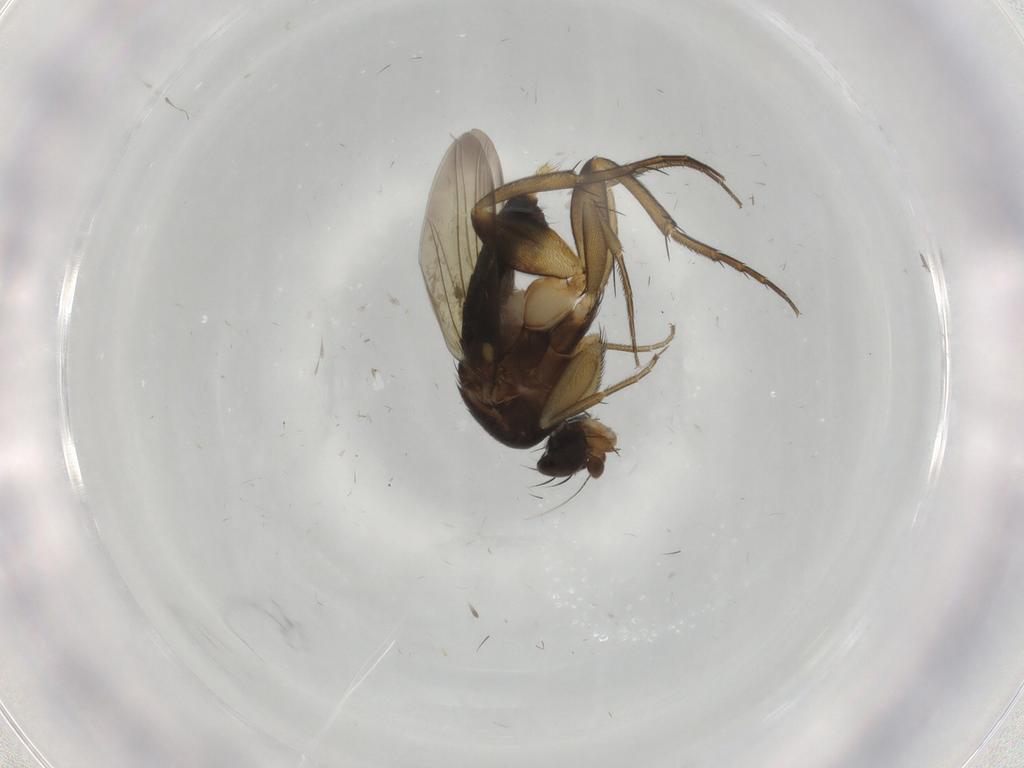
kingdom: Animalia
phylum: Arthropoda
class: Insecta
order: Diptera
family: Phoridae
